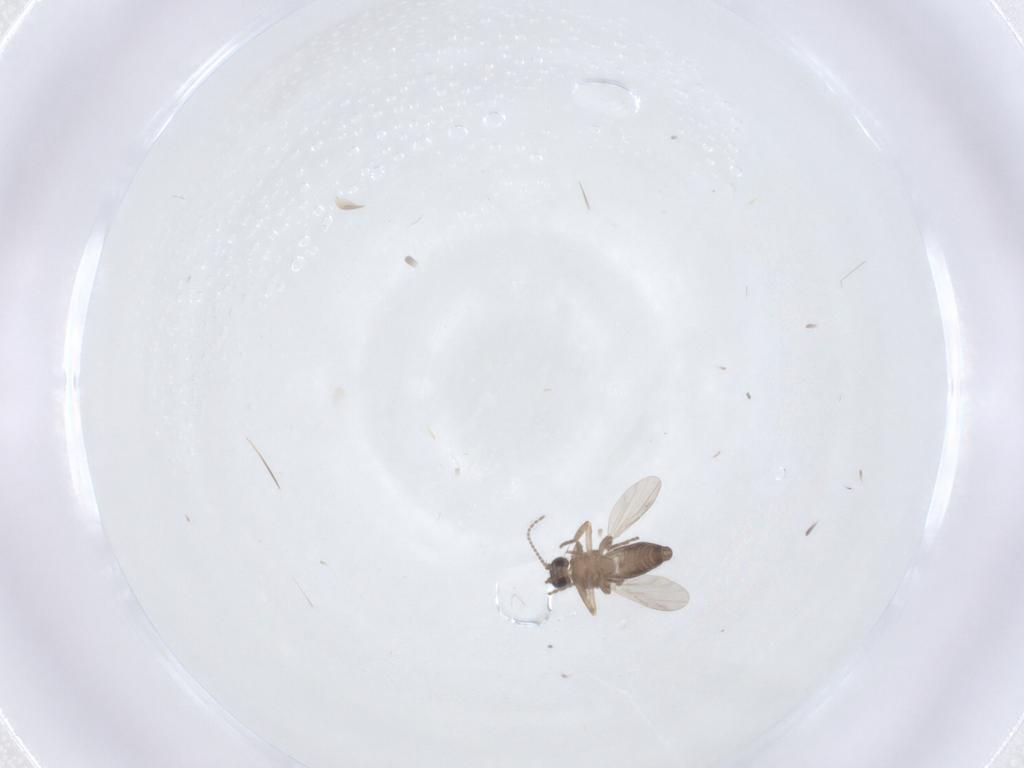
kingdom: Animalia
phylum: Arthropoda
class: Insecta
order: Diptera
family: Ceratopogonidae
